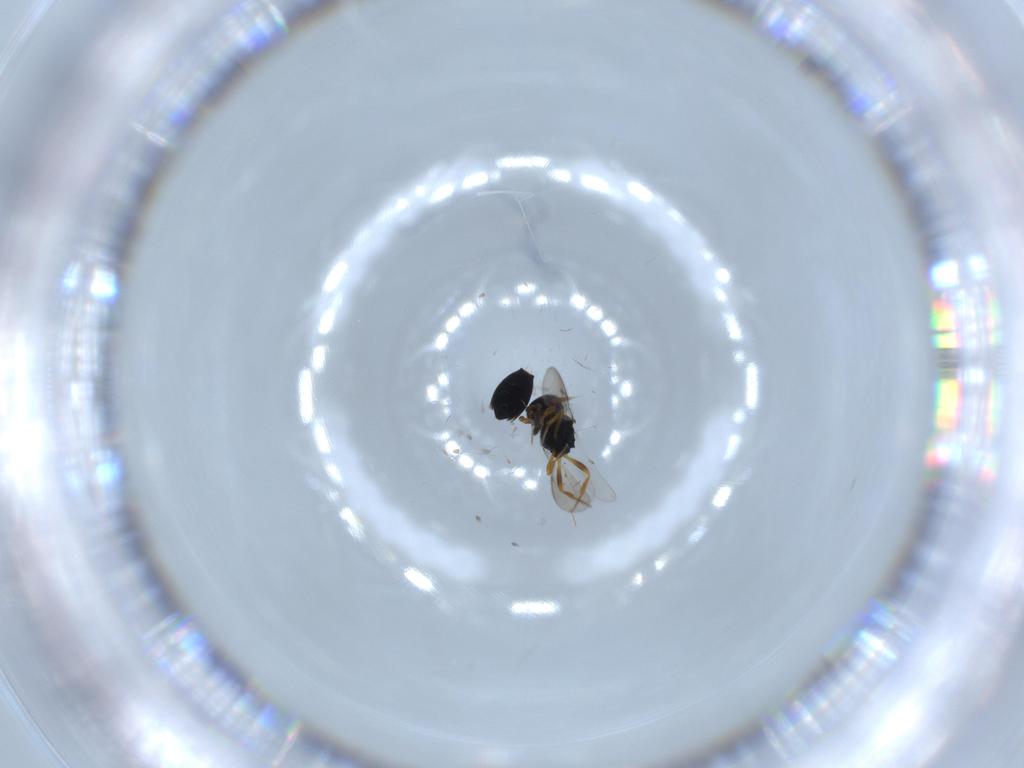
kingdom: Animalia
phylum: Arthropoda
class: Insecta
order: Hymenoptera
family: Scelionidae
